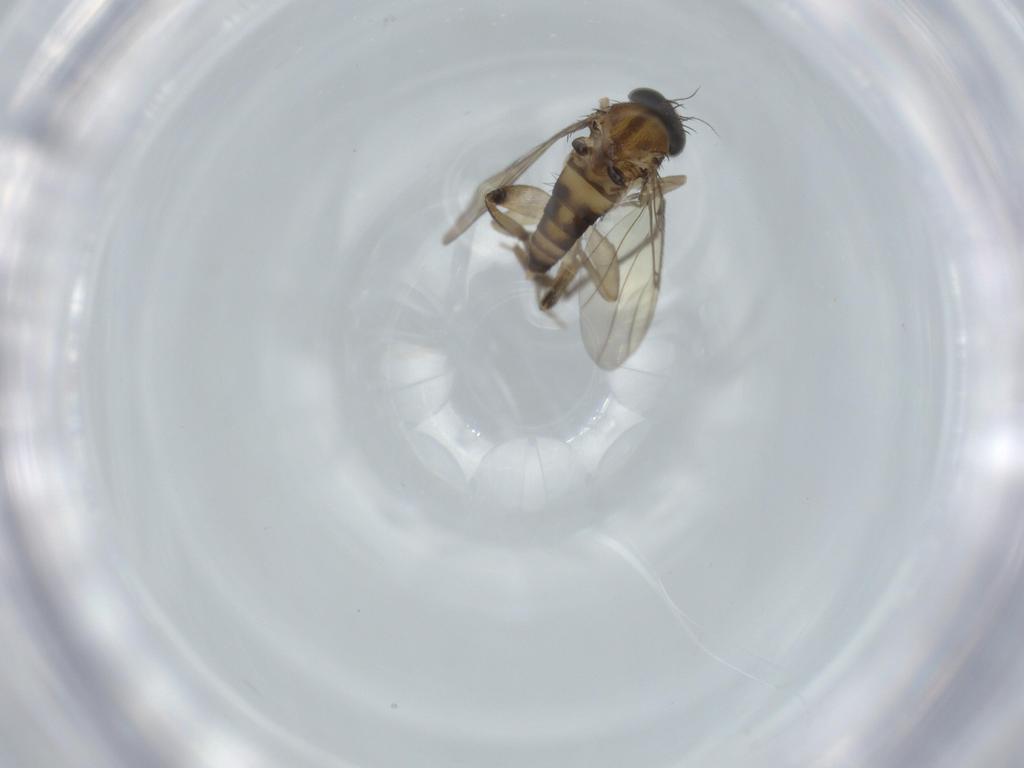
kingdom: Animalia
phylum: Arthropoda
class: Insecta
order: Diptera
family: Sciaridae
